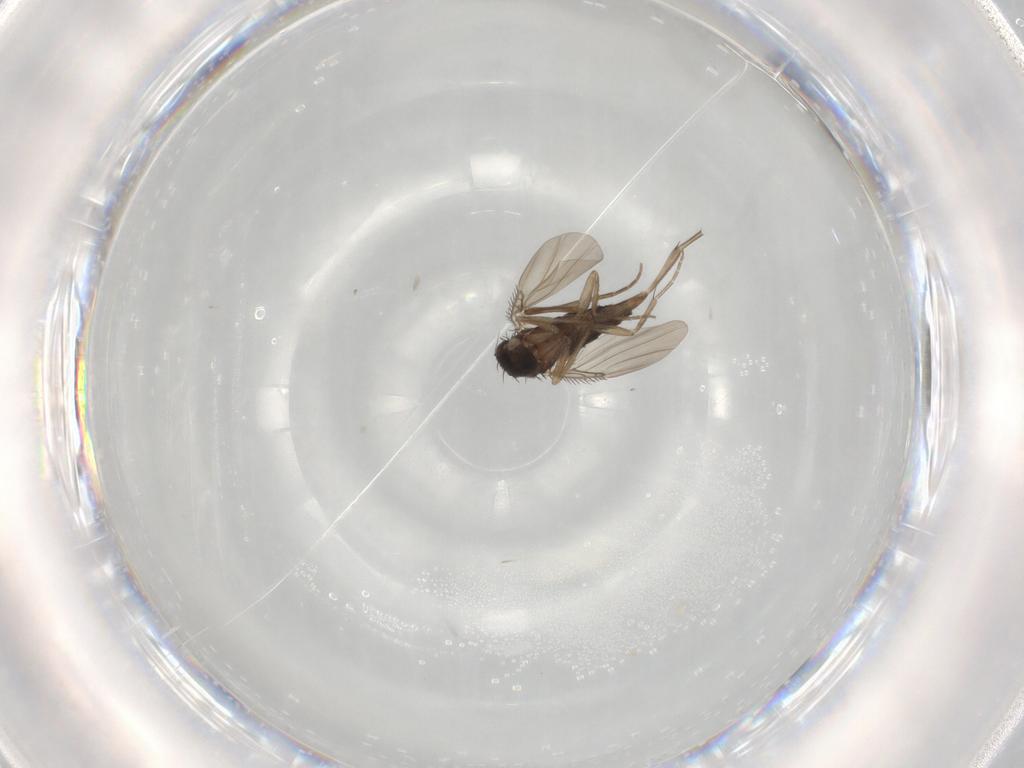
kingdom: Animalia
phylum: Arthropoda
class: Insecta
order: Diptera
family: Phoridae
